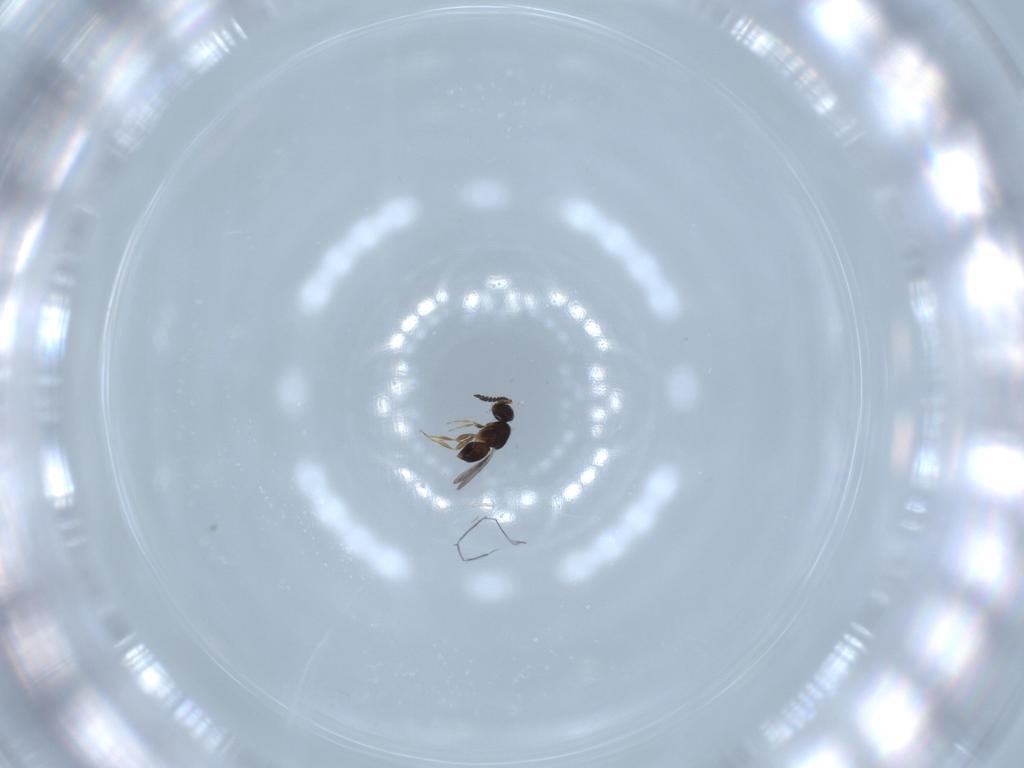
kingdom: Animalia
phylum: Arthropoda
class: Insecta
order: Hymenoptera
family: Ceraphronidae
